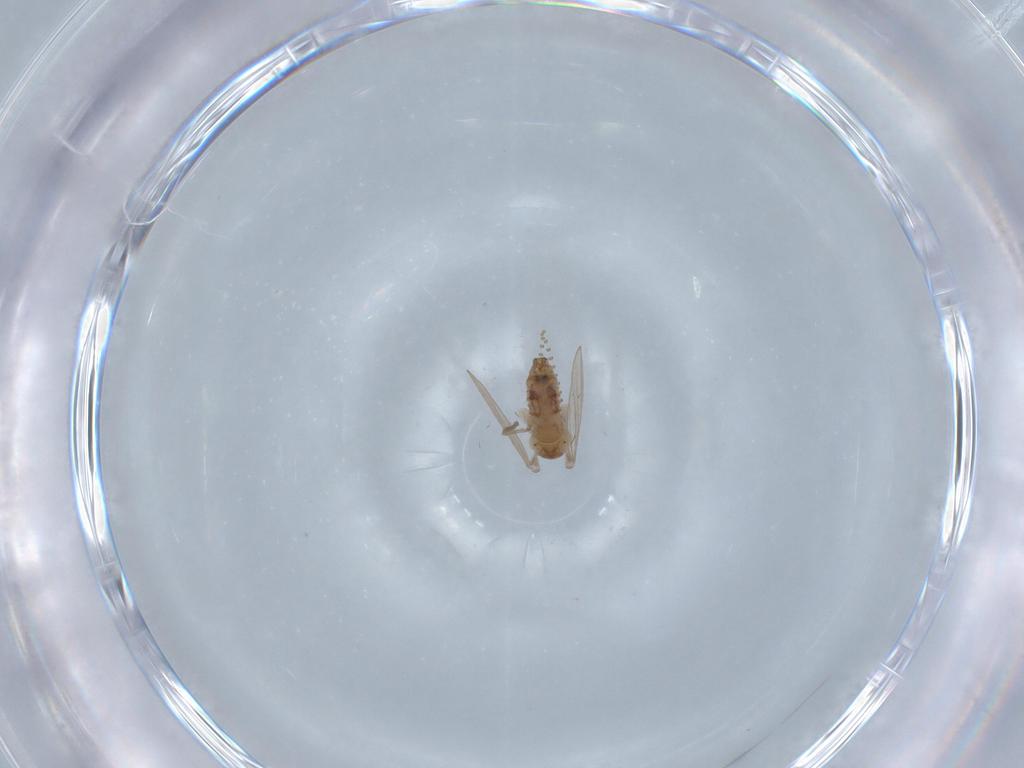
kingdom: Animalia
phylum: Arthropoda
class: Insecta
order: Diptera
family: Psychodidae
